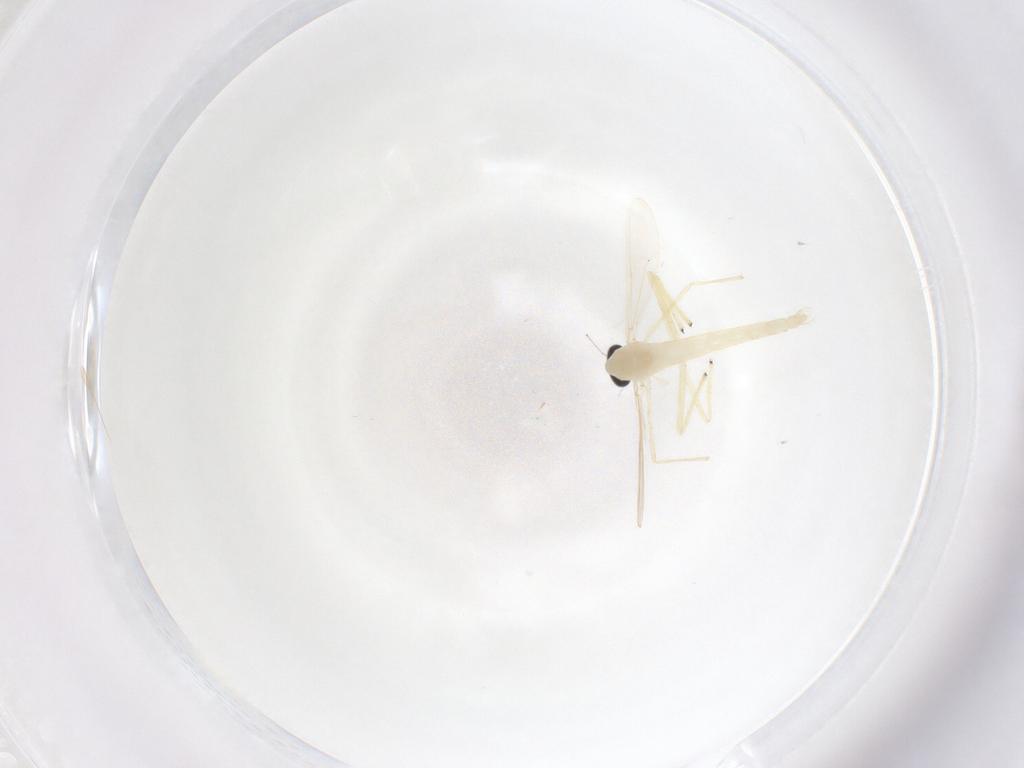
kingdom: Animalia
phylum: Arthropoda
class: Insecta
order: Diptera
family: Chironomidae
